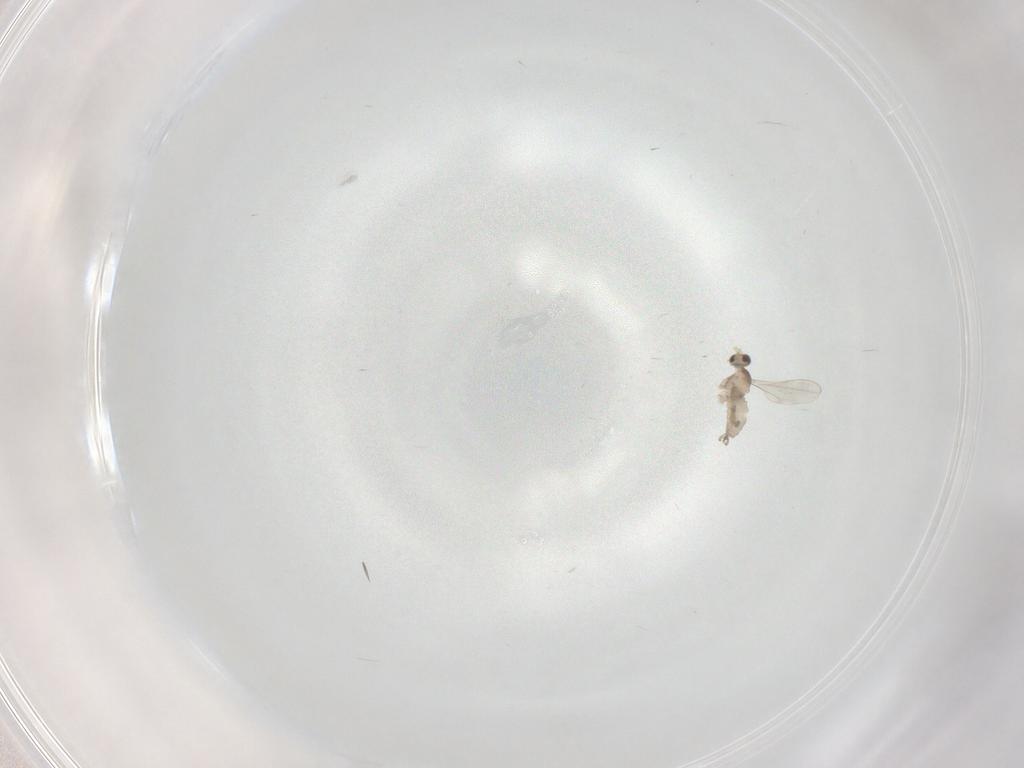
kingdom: Animalia
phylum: Arthropoda
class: Insecta
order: Diptera
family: Cecidomyiidae
